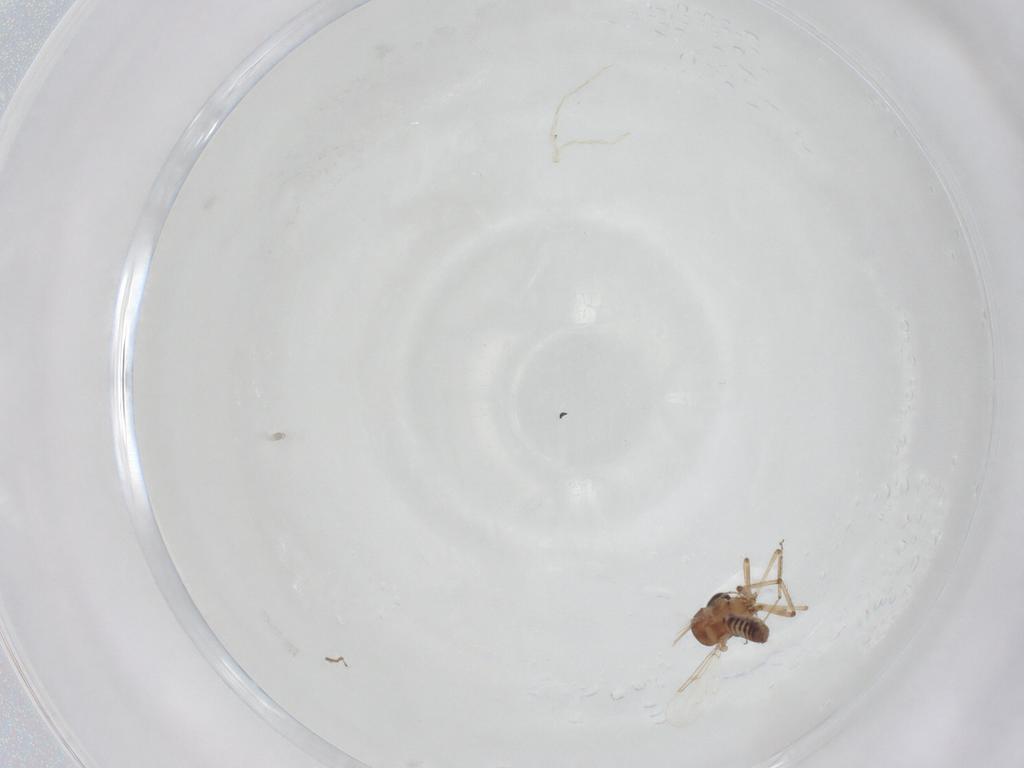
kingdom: Animalia
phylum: Arthropoda
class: Insecta
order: Diptera
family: Ceratopogonidae
